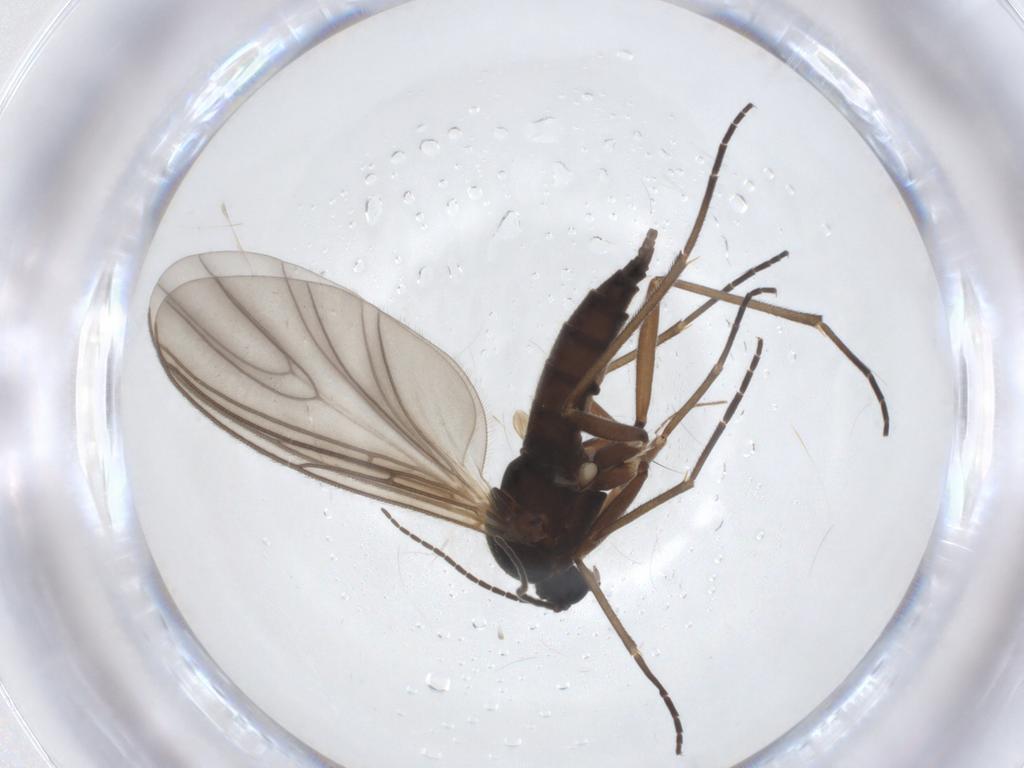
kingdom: Animalia
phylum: Arthropoda
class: Insecta
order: Diptera
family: Sciaridae
